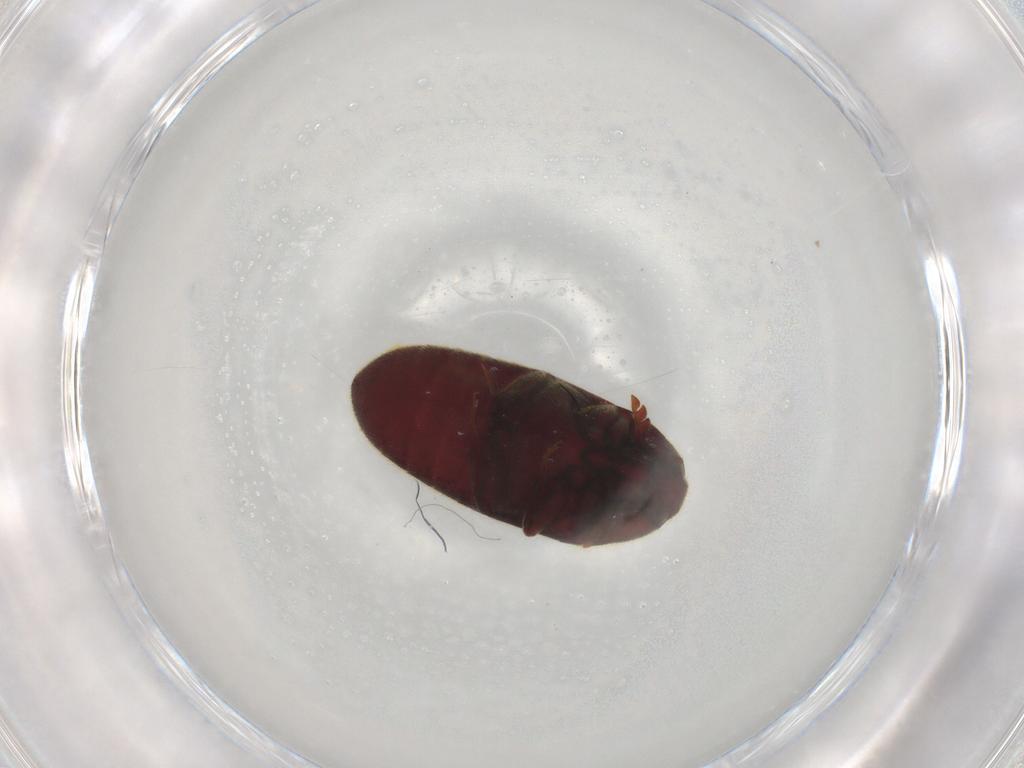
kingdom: Animalia
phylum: Arthropoda
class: Insecta
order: Coleoptera
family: Throscidae
